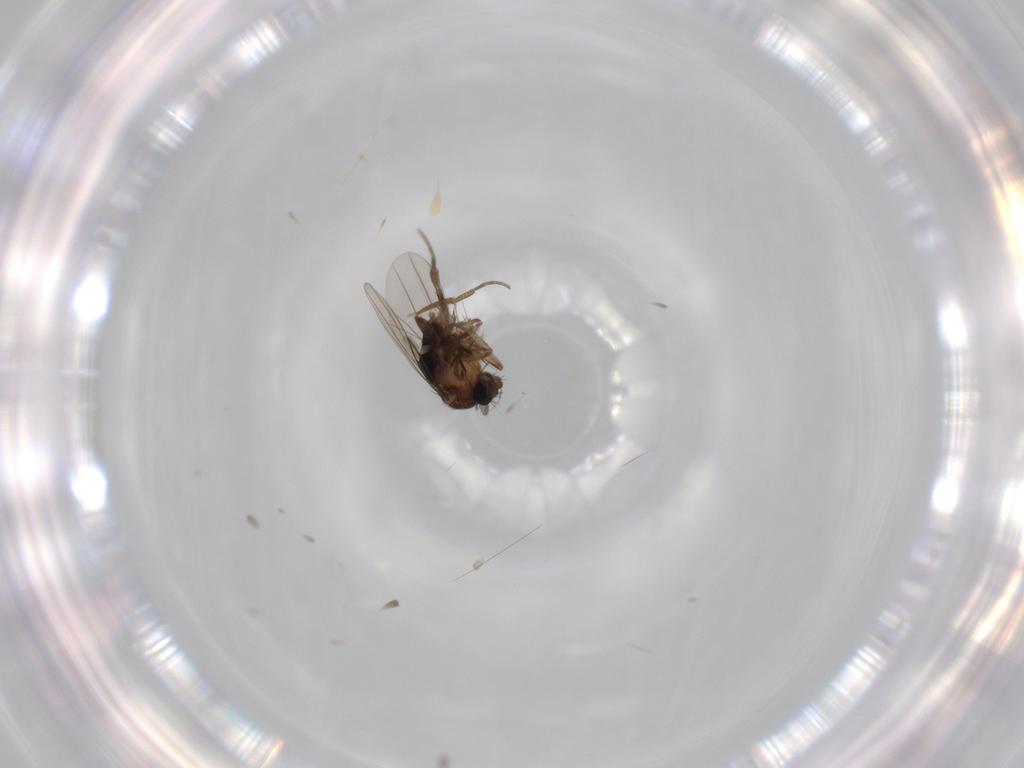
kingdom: Animalia
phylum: Arthropoda
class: Insecta
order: Diptera
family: Phoridae
